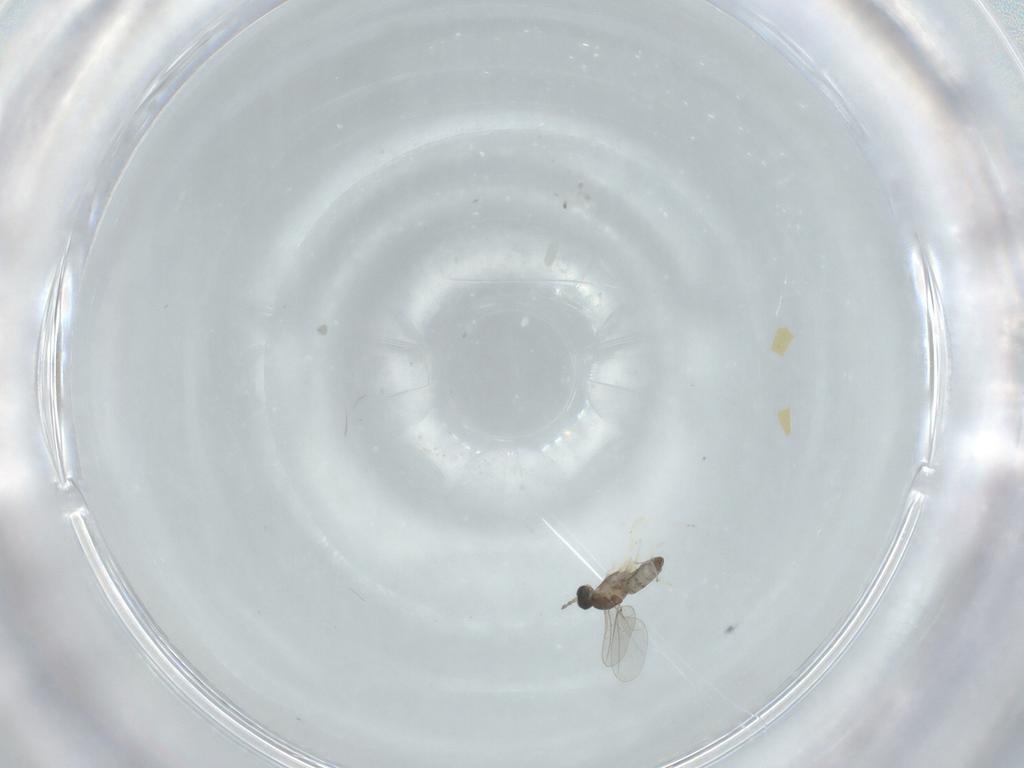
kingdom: Animalia
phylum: Arthropoda
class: Insecta
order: Diptera
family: Cecidomyiidae
